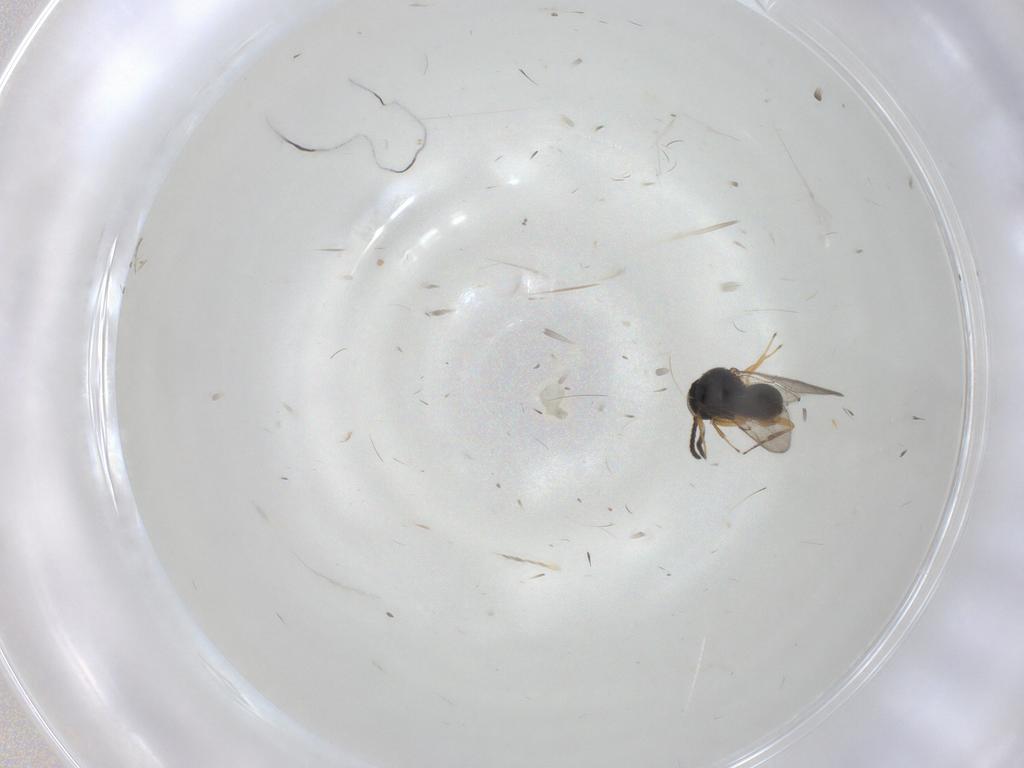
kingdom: Animalia
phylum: Arthropoda
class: Insecta
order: Hymenoptera
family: Scelionidae
